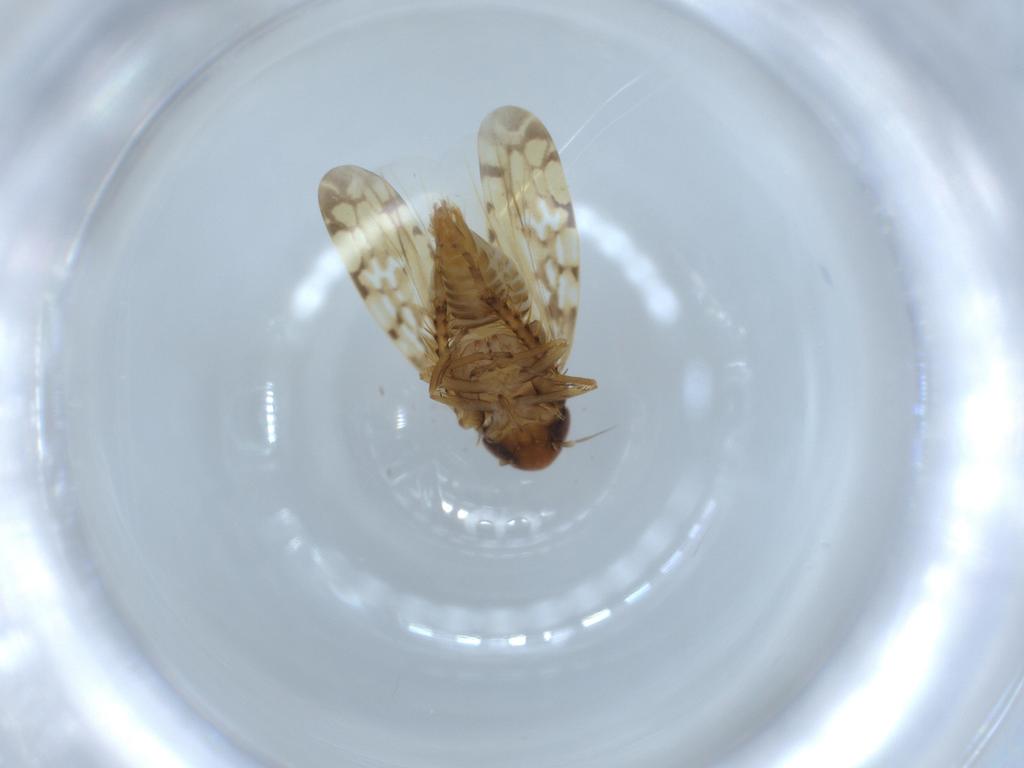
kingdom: Animalia
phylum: Arthropoda
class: Insecta
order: Hemiptera
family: Cicadellidae
